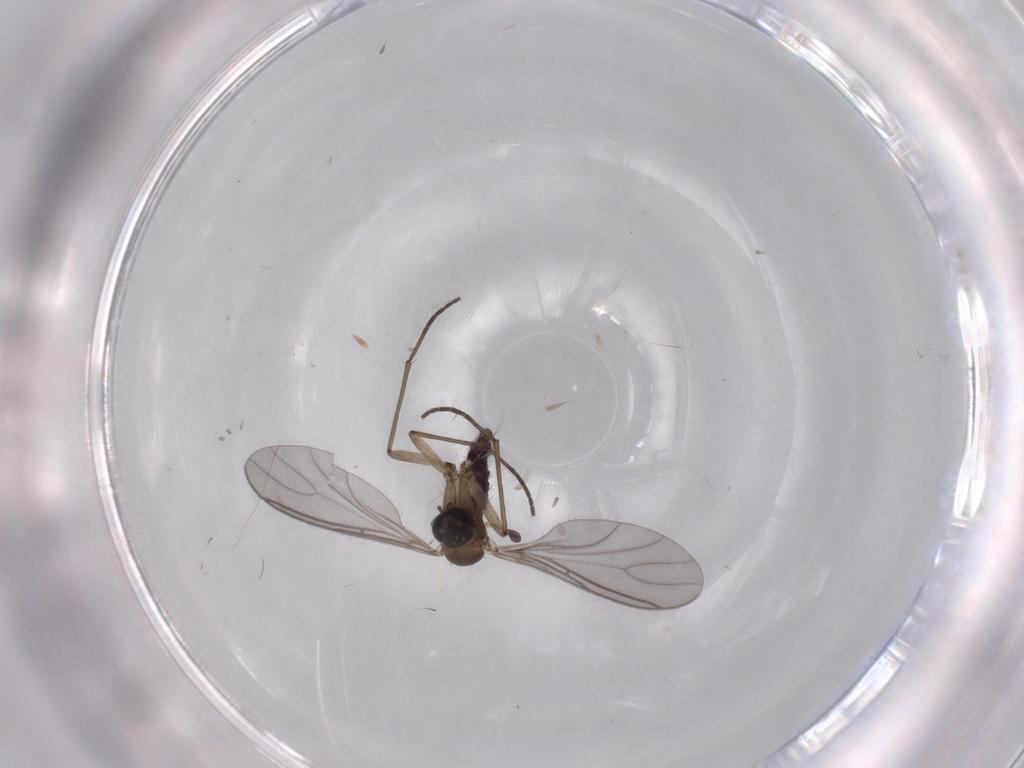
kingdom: Animalia
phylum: Arthropoda
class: Insecta
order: Diptera
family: Sciaridae
